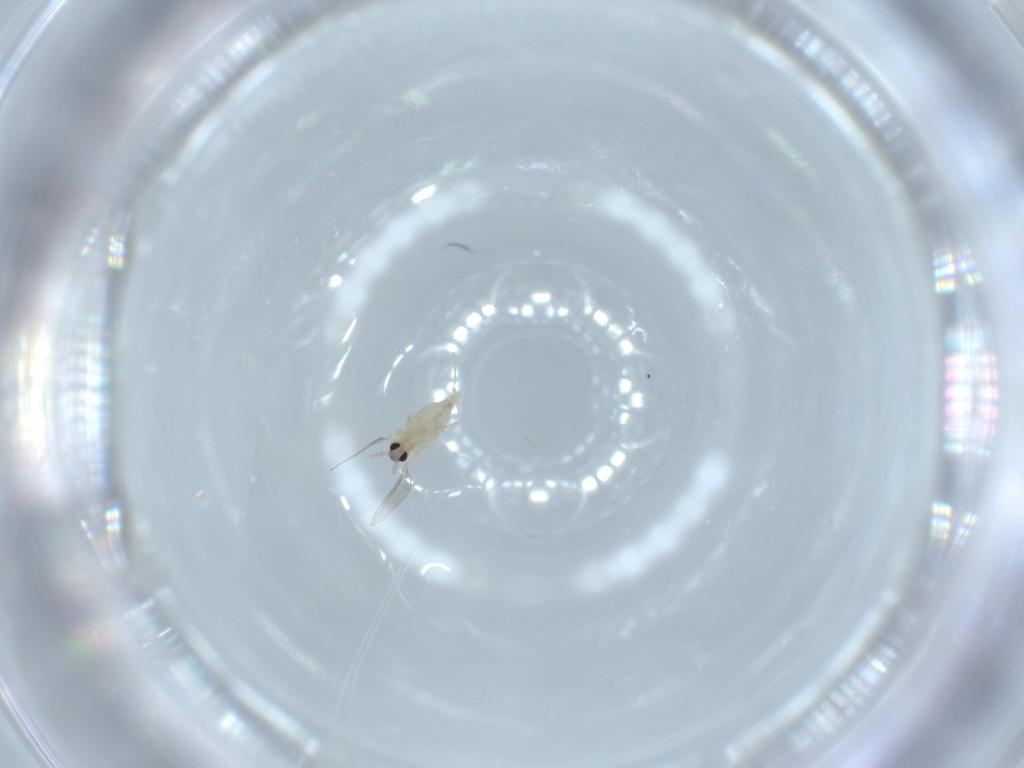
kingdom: Animalia
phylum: Arthropoda
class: Insecta
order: Diptera
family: Cecidomyiidae
